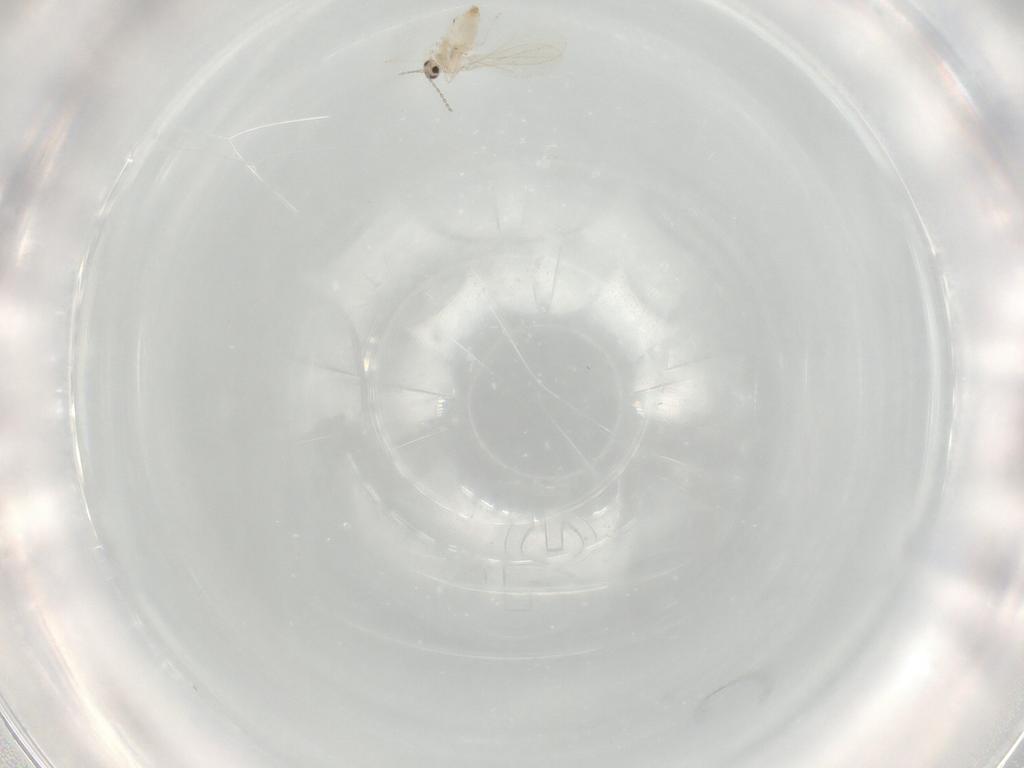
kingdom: Animalia
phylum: Arthropoda
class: Insecta
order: Diptera
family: Cecidomyiidae
